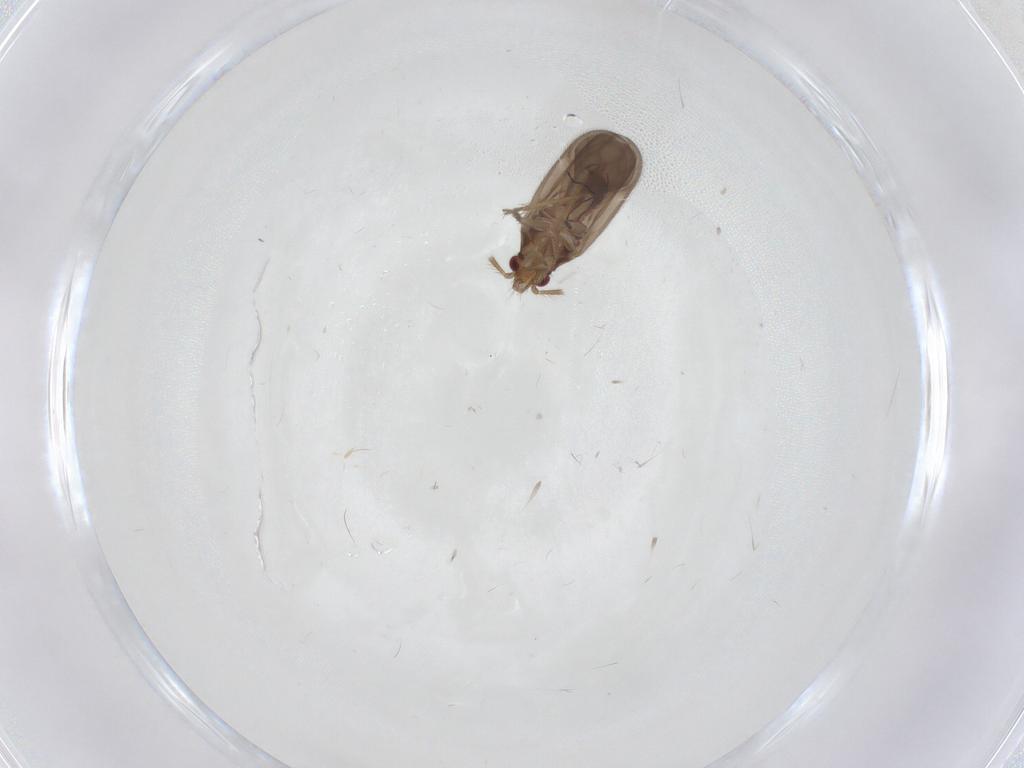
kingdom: Animalia
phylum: Arthropoda
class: Insecta
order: Hemiptera
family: Ceratocombidae
